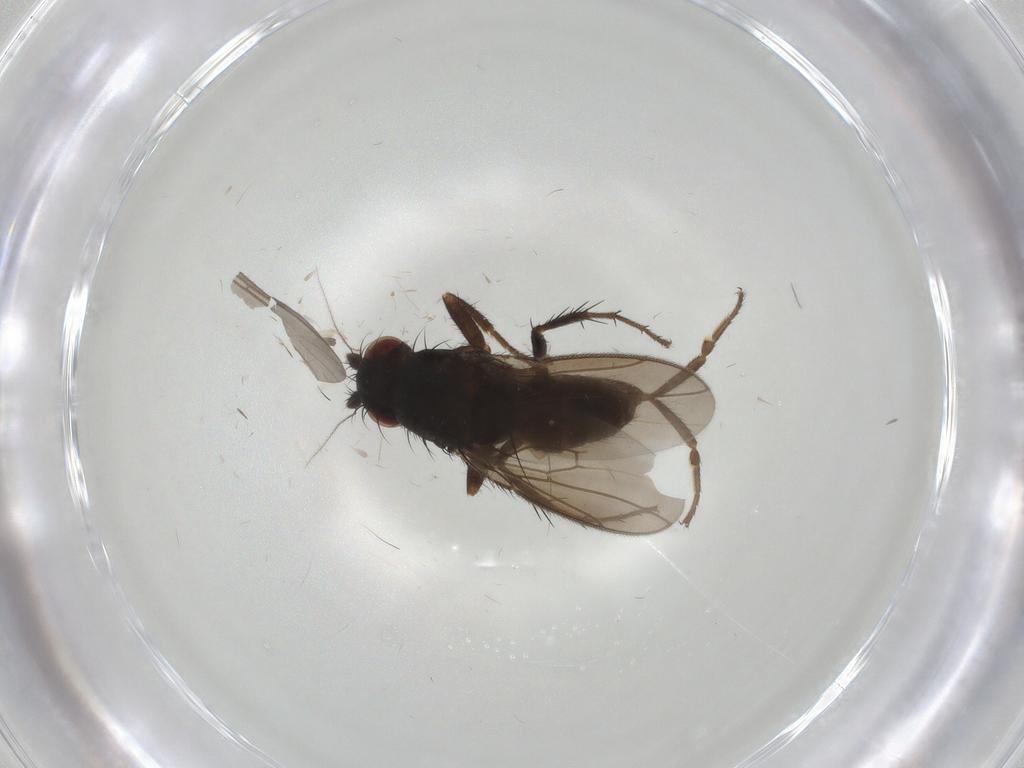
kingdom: Animalia
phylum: Arthropoda
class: Insecta
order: Diptera
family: Sphaeroceridae
